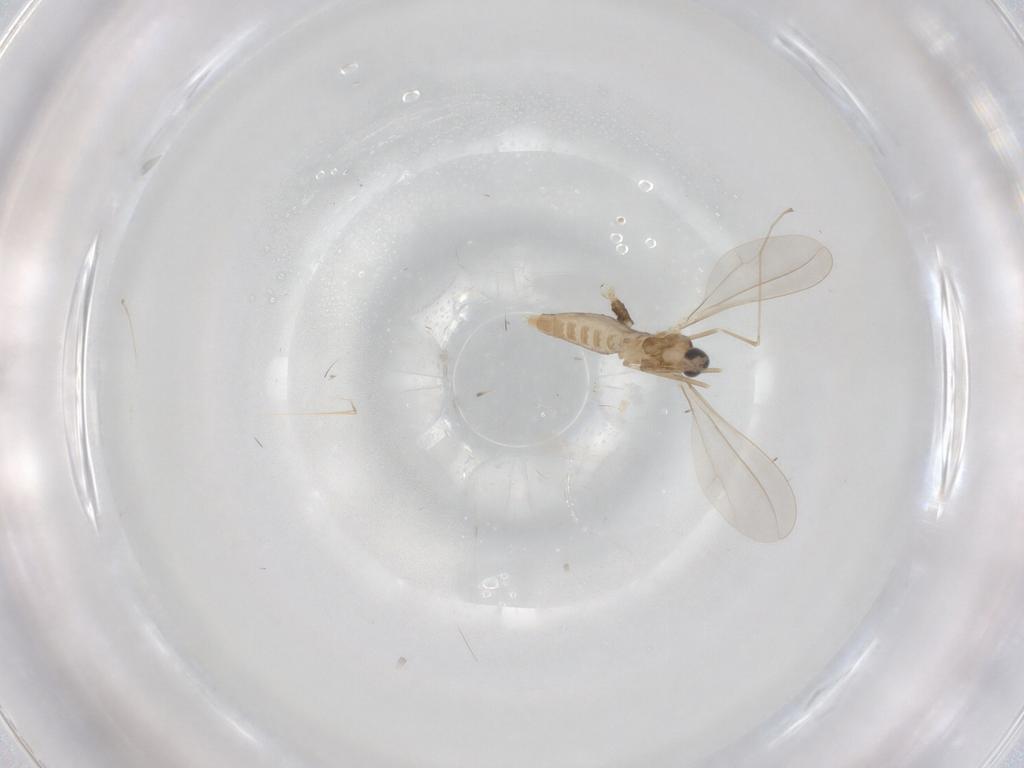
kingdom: Animalia
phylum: Arthropoda
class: Insecta
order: Diptera
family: Cecidomyiidae
